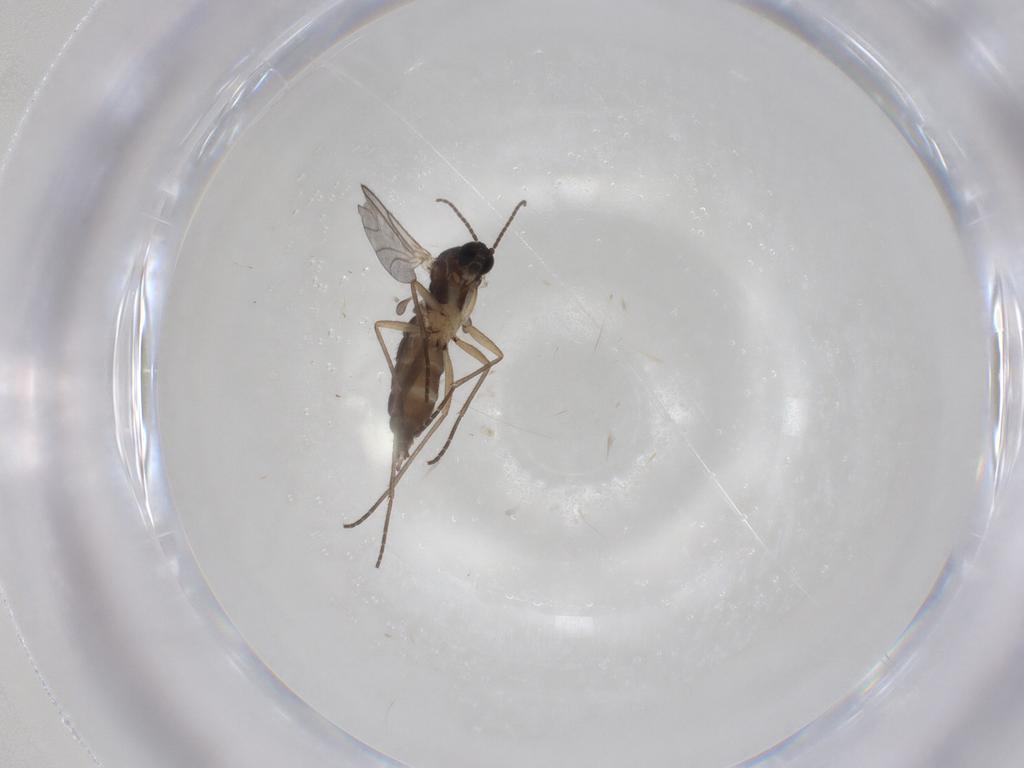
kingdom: Animalia
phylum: Arthropoda
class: Insecta
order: Diptera
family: Sciaridae
